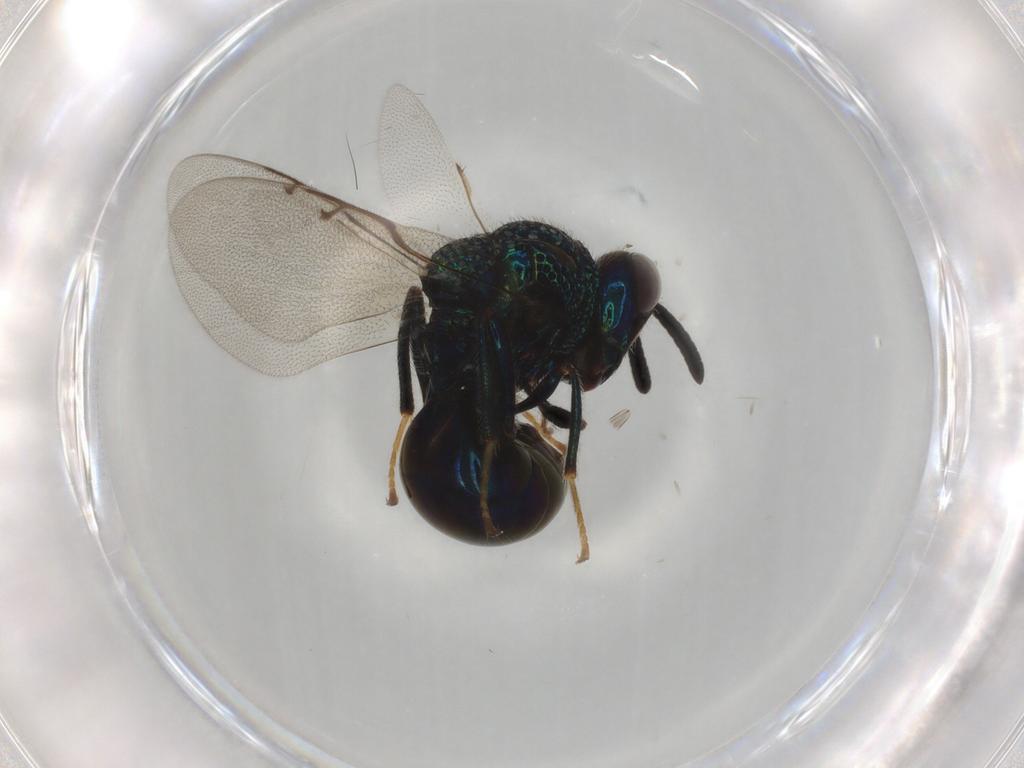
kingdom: Animalia
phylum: Arthropoda
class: Insecta
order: Hymenoptera
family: Perilampidae
